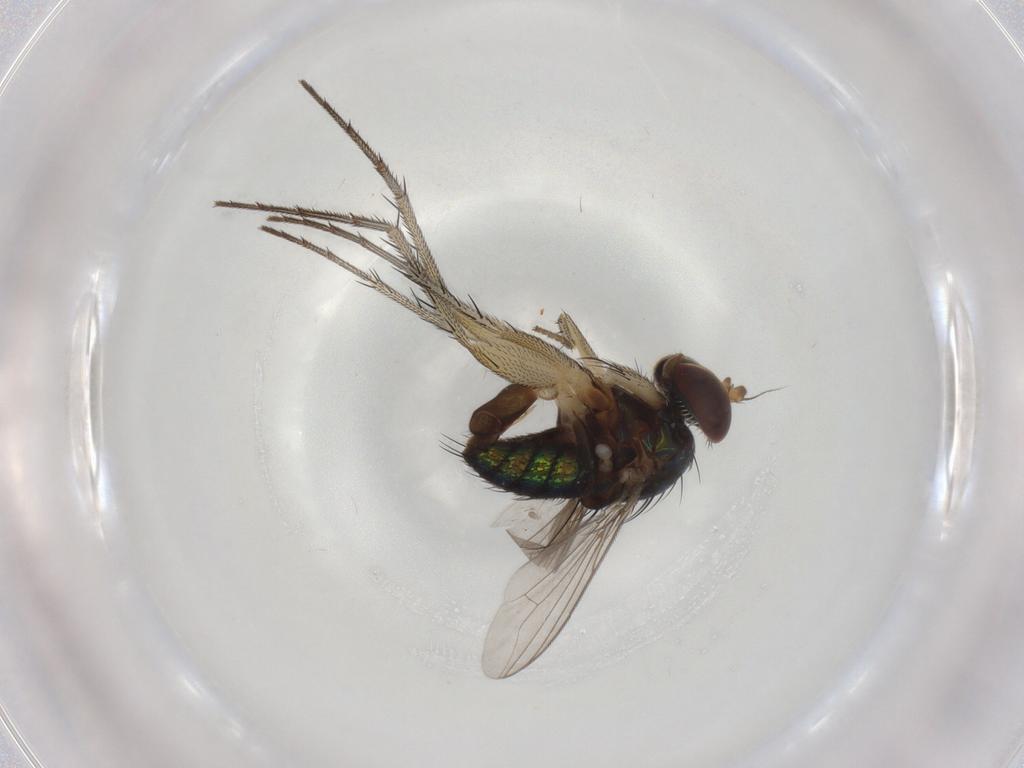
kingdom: Animalia
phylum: Arthropoda
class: Insecta
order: Diptera
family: Dolichopodidae
